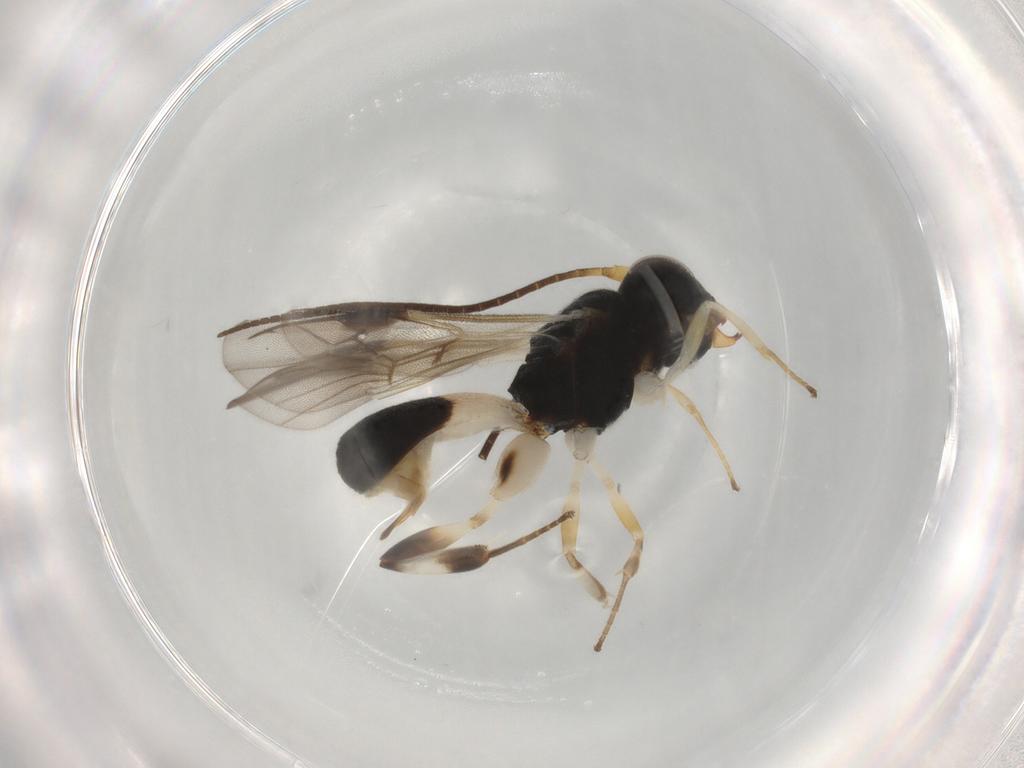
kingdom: Animalia
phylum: Arthropoda
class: Insecta
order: Hymenoptera
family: Braconidae
